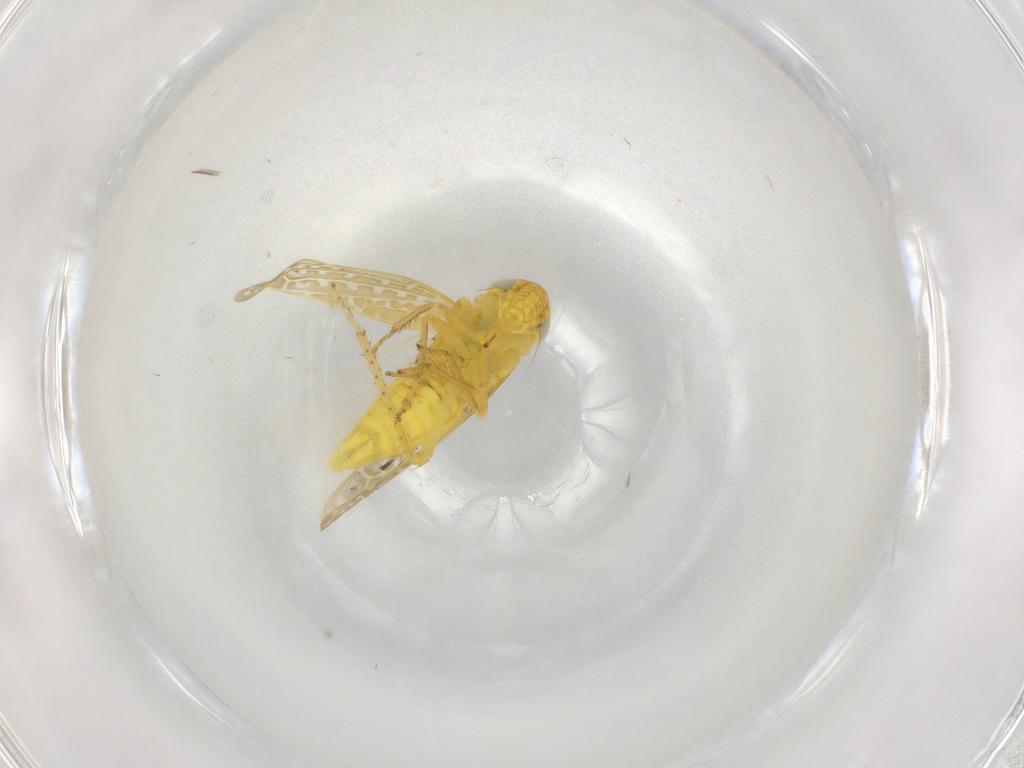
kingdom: Animalia
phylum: Arthropoda
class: Insecta
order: Hemiptera
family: Cicadellidae
